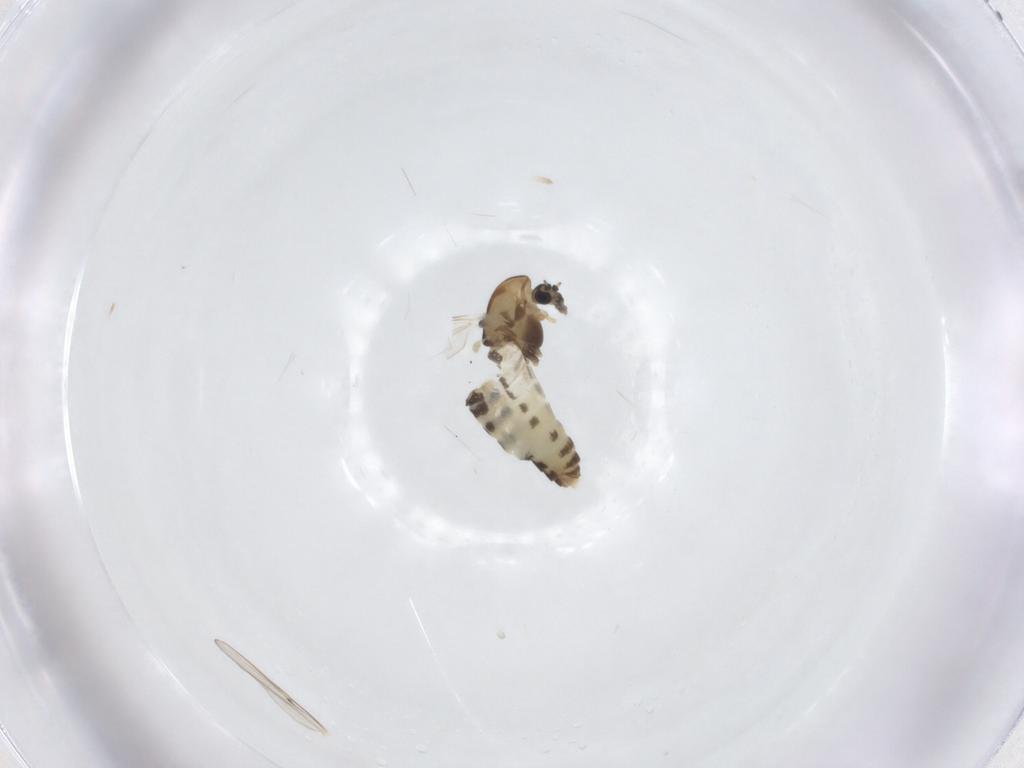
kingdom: Animalia
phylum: Arthropoda
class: Insecta
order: Diptera
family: Chironomidae
